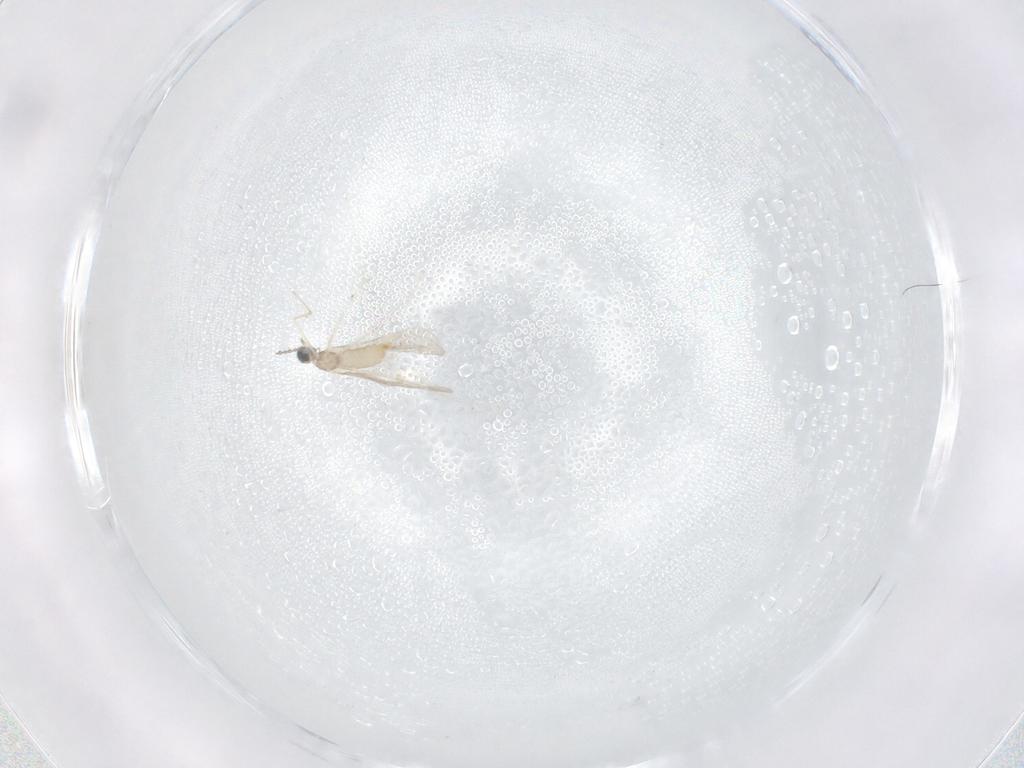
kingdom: Animalia
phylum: Arthropoda
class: Insecta
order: Diptera
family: Cecidomyiidae
